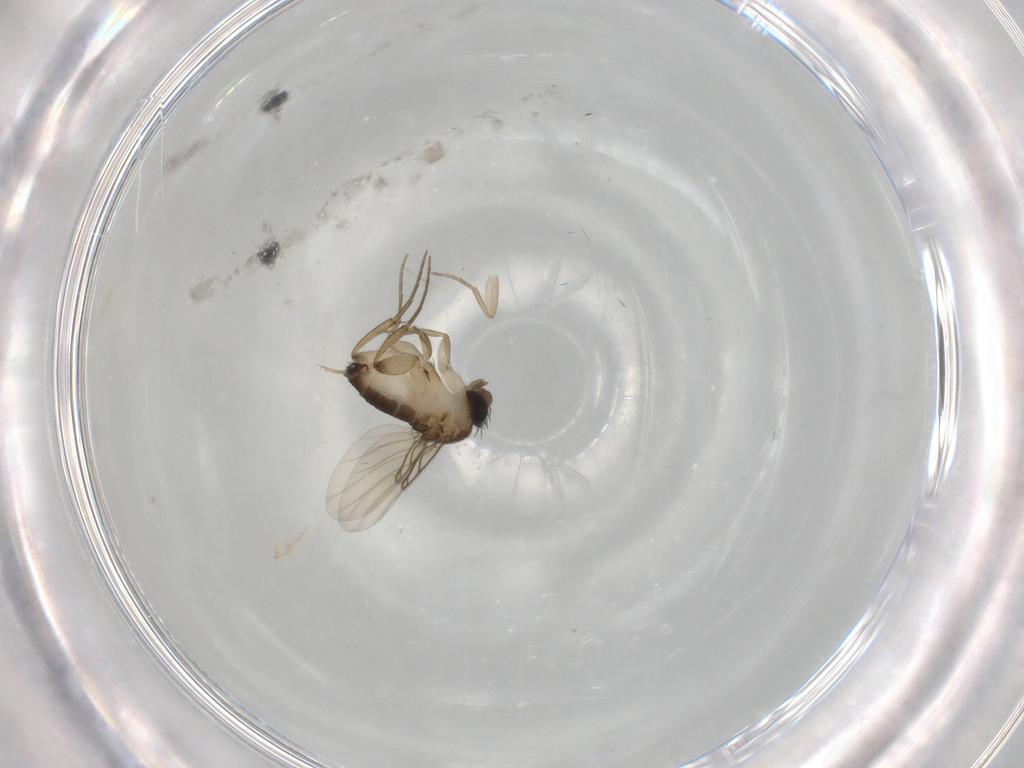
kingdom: Animalia
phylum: Arthropoda
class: Insecta
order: Diptera
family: Phoridae
